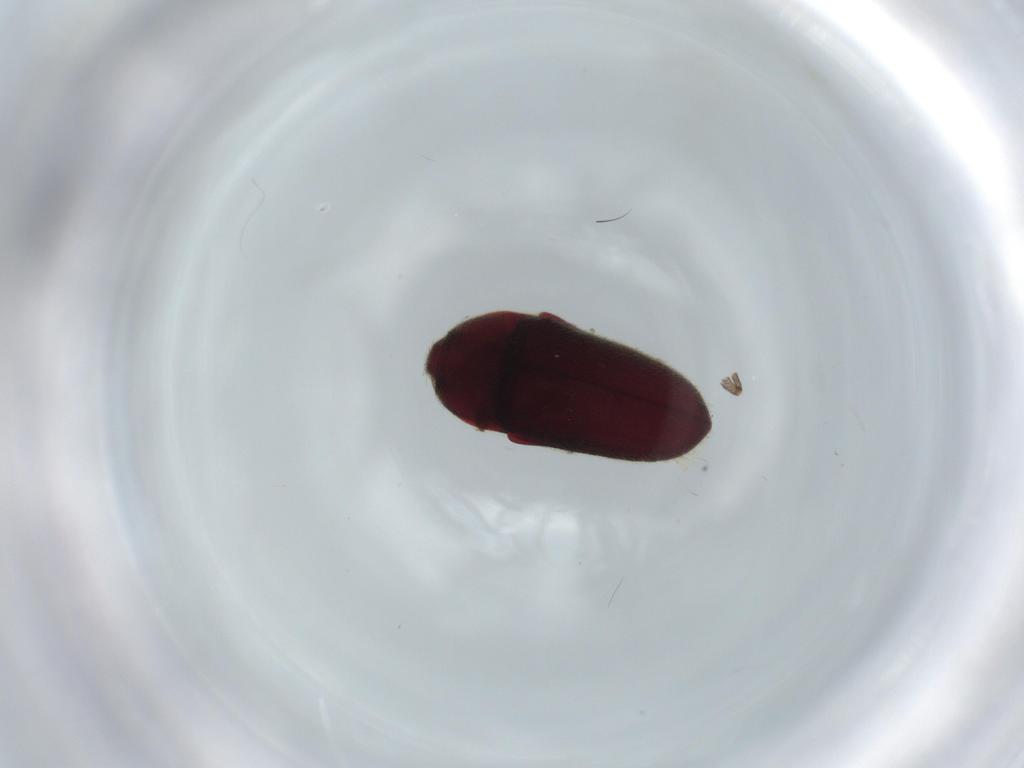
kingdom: Animalia
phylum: Arthropoda
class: Insecta
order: Coleoptera
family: Throscidae
